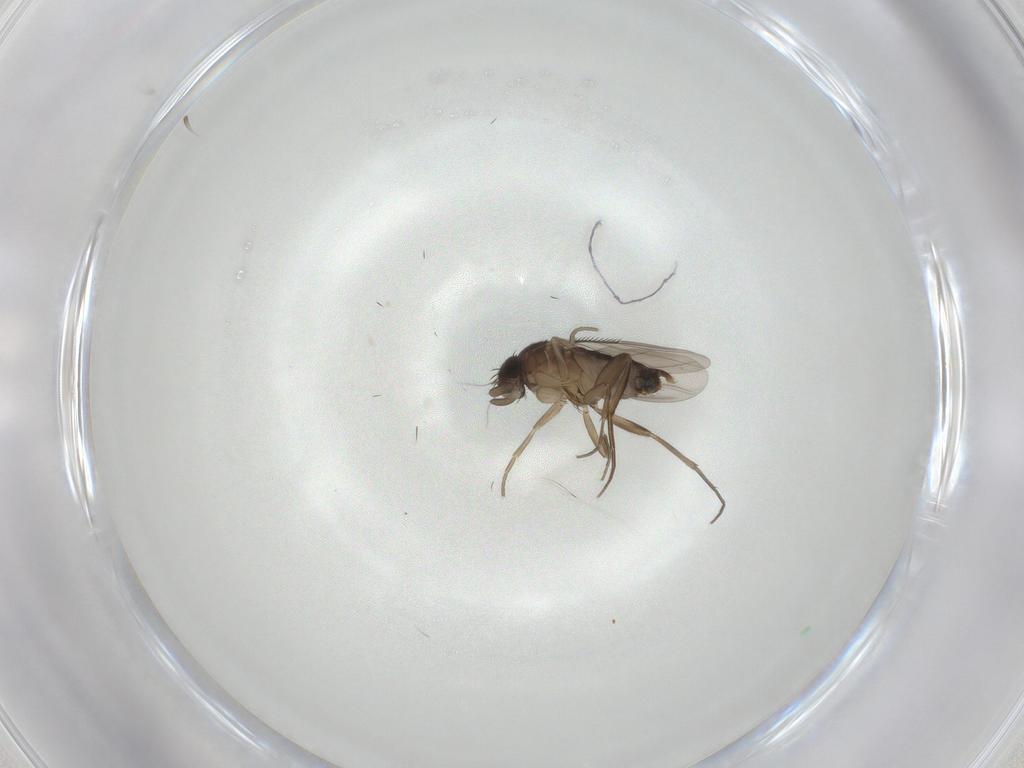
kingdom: Animalia
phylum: Arthropoda
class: Insecta
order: Diptera
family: Phoridae
